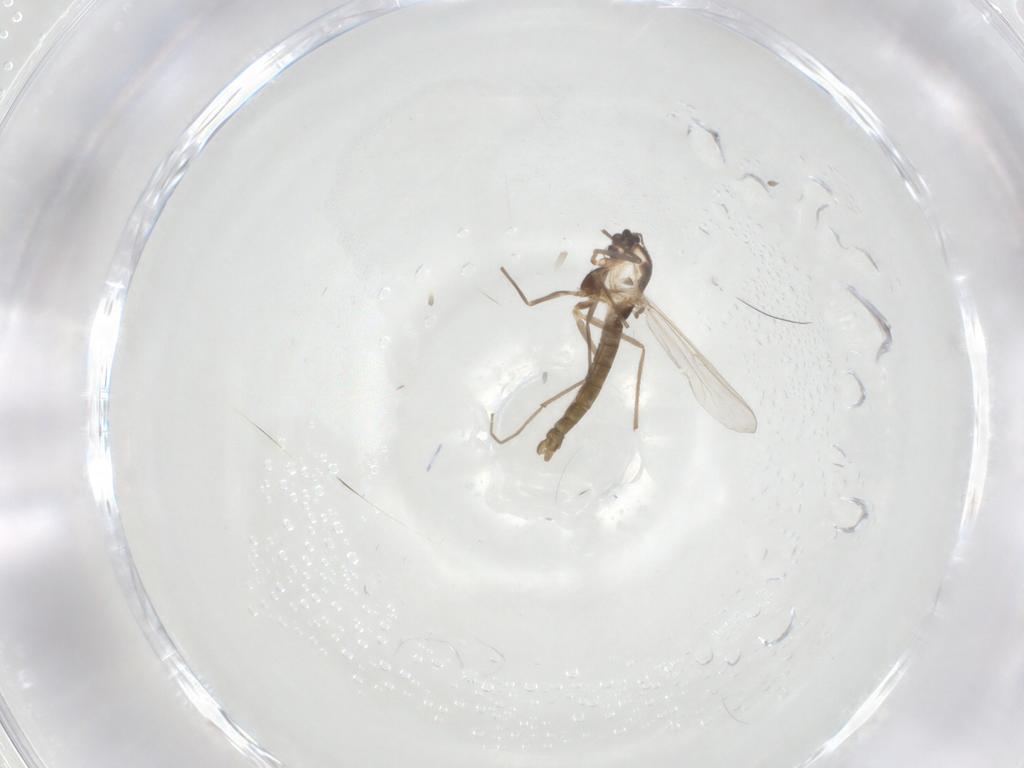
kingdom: Animalia
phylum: Arthropoda
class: Insecta
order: Diptera
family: Chironomidae
